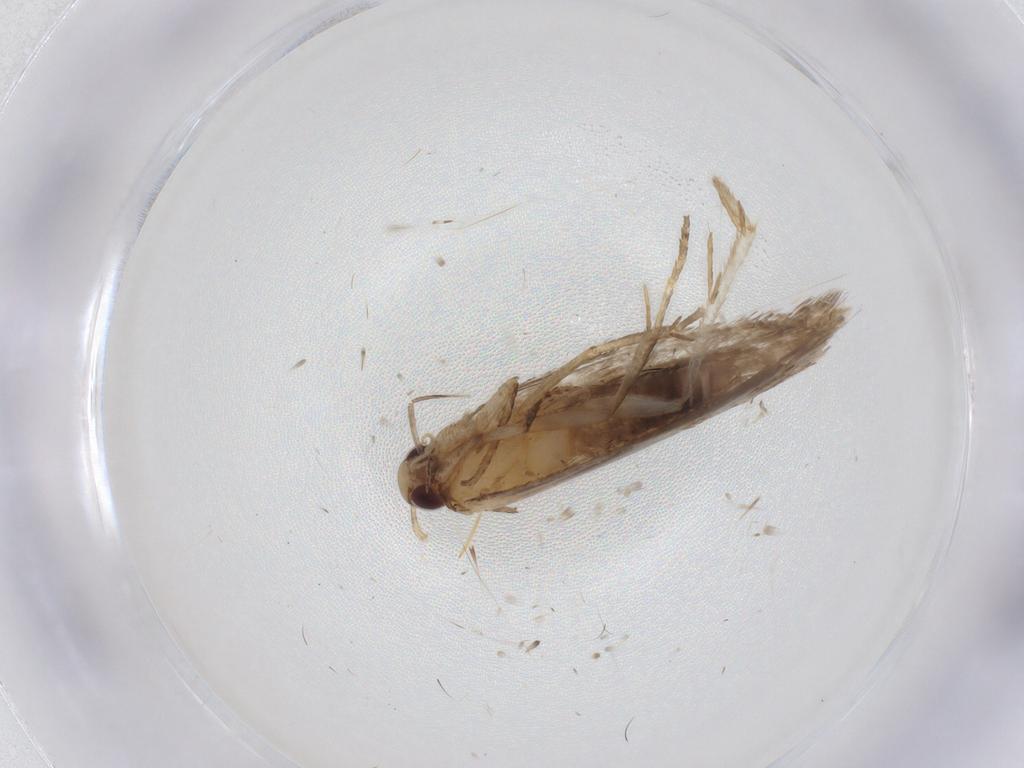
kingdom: Animalia
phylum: Arthropoda
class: Insecta
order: Lepidoptera
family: Gelechiidae
